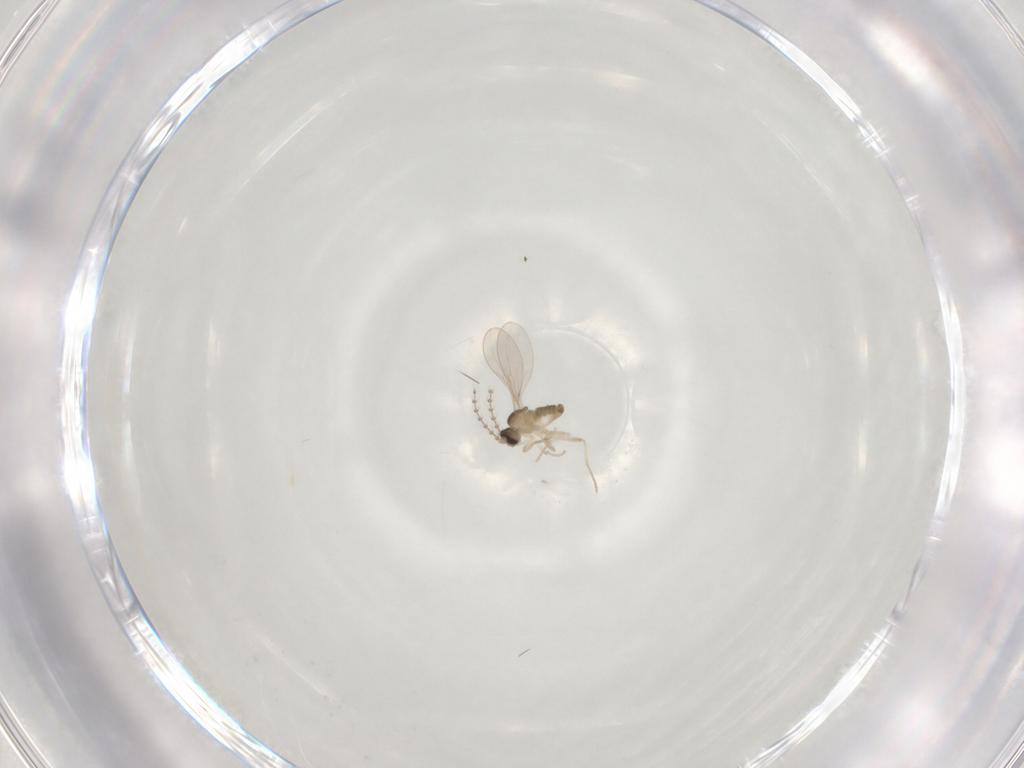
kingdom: Animalia
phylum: Arthropoda
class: Insecta
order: Diptera
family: Cecidomyiidae
